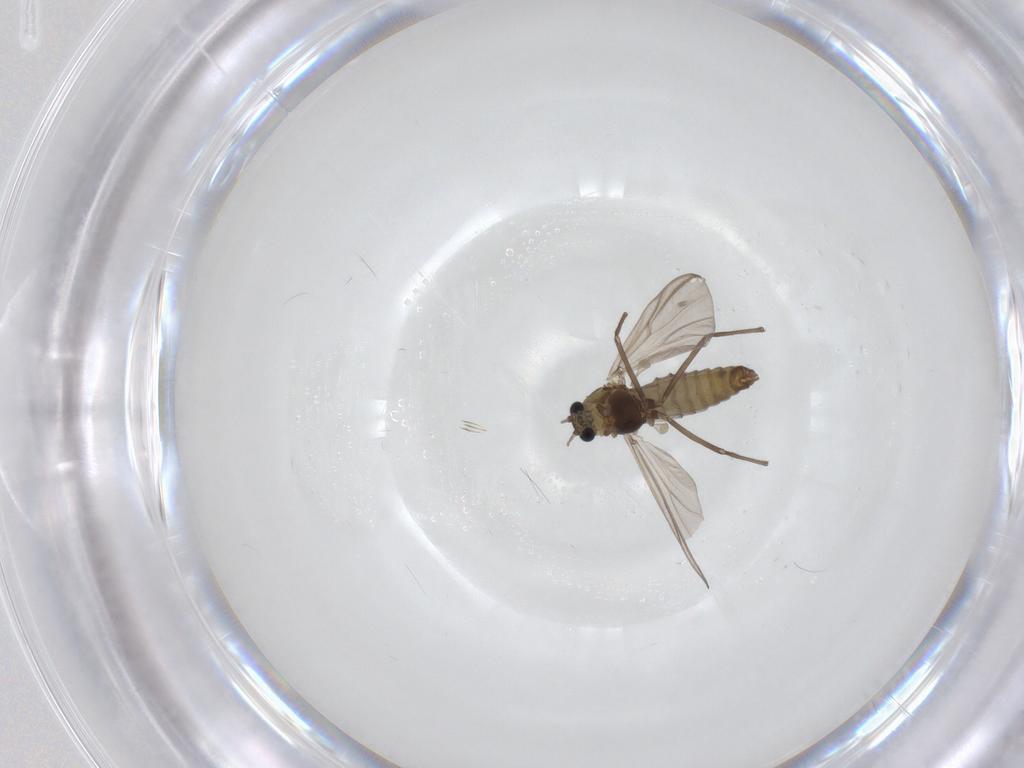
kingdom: Animalia
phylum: Arthropoda
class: Insecta
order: Diptera
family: Chironomidae
